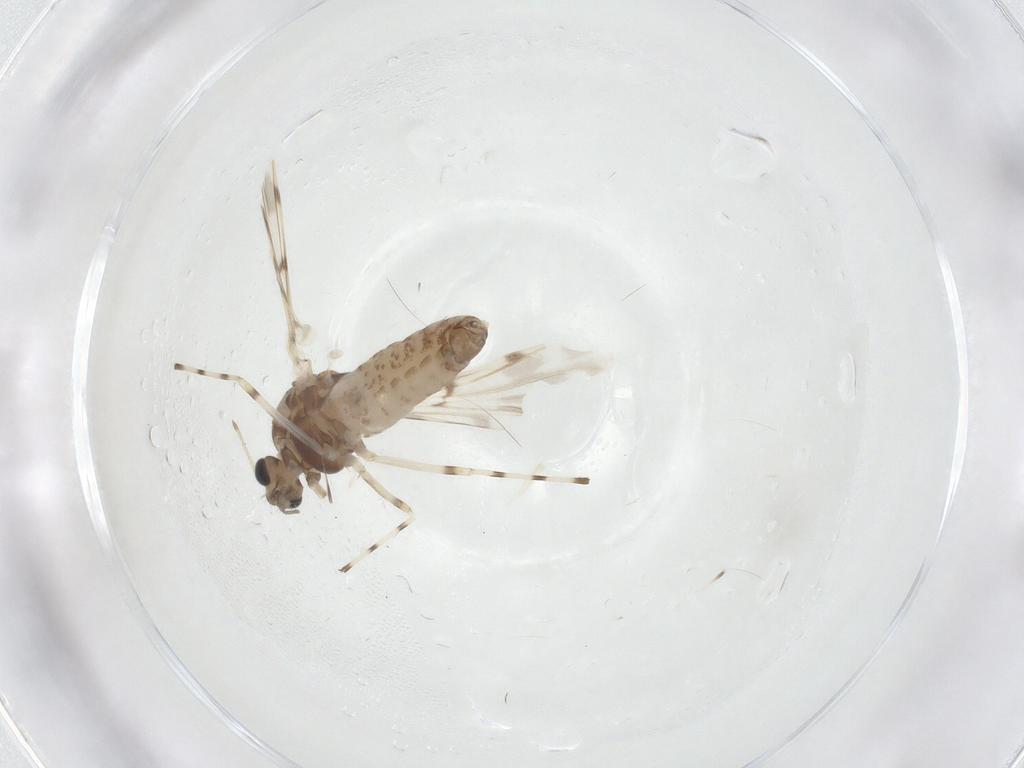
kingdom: Animalia
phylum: Arthropoda
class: Insecta
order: Diptera
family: Chironomidae
